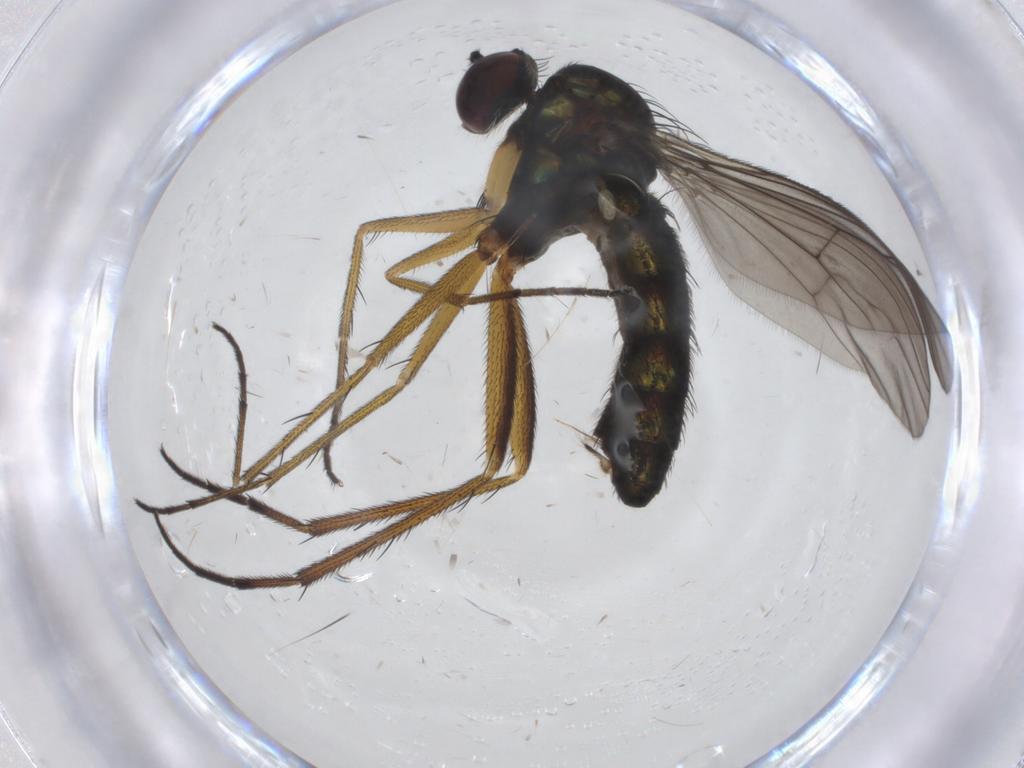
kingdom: Animalia
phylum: Arthropoda
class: Insecta
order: Diptera
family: Dolichopodidae
